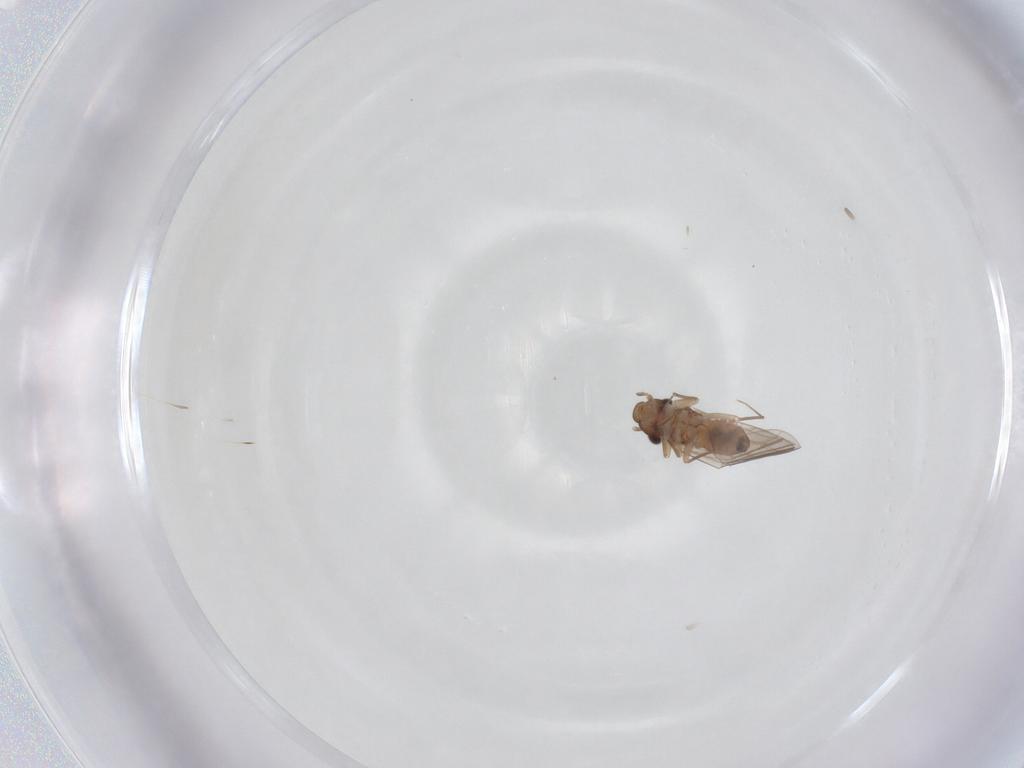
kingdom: Animalia
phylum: Arthropoda
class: Insecta
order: Psocodea
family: Lepidopsocidae
